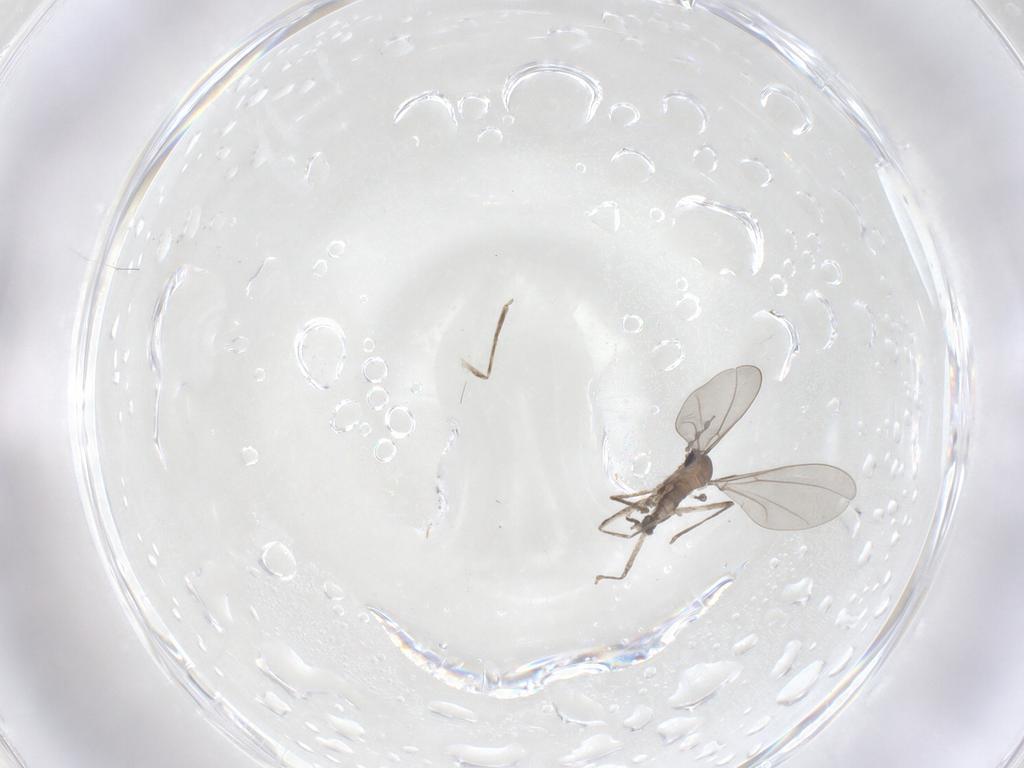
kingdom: Animalia
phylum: Arthropoda
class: Insecta
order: Diptera
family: Cecidomyiidae
